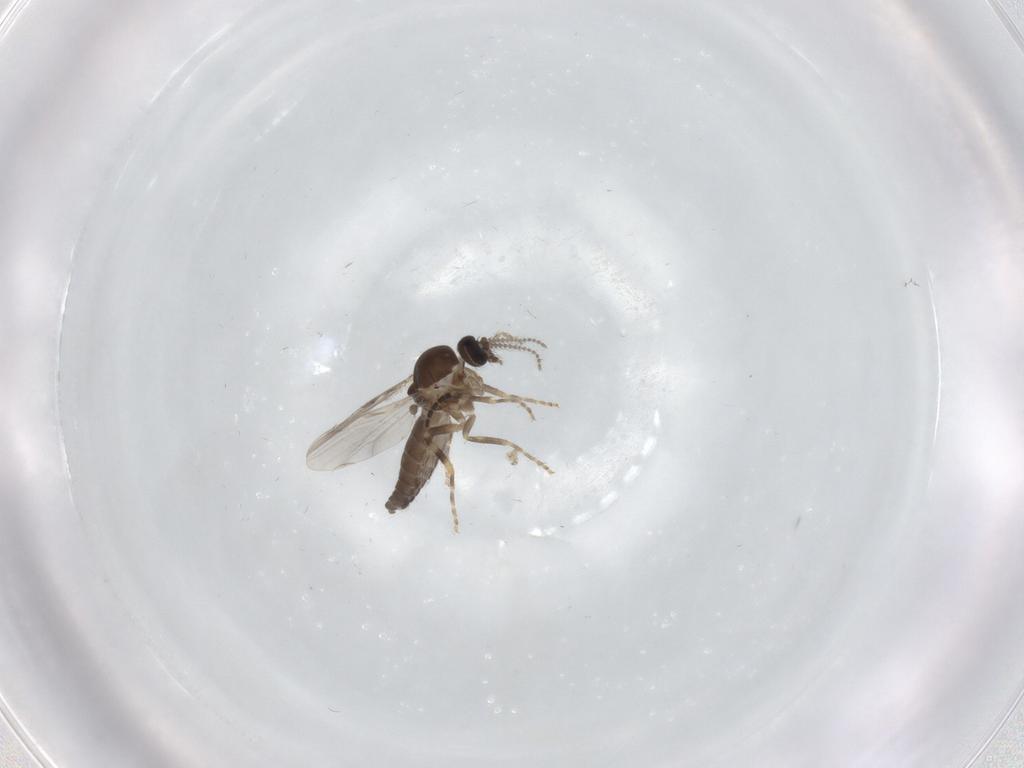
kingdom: Animalia
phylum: Arthropoda
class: Insecta
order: Diptera
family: Ceratopogonidae
